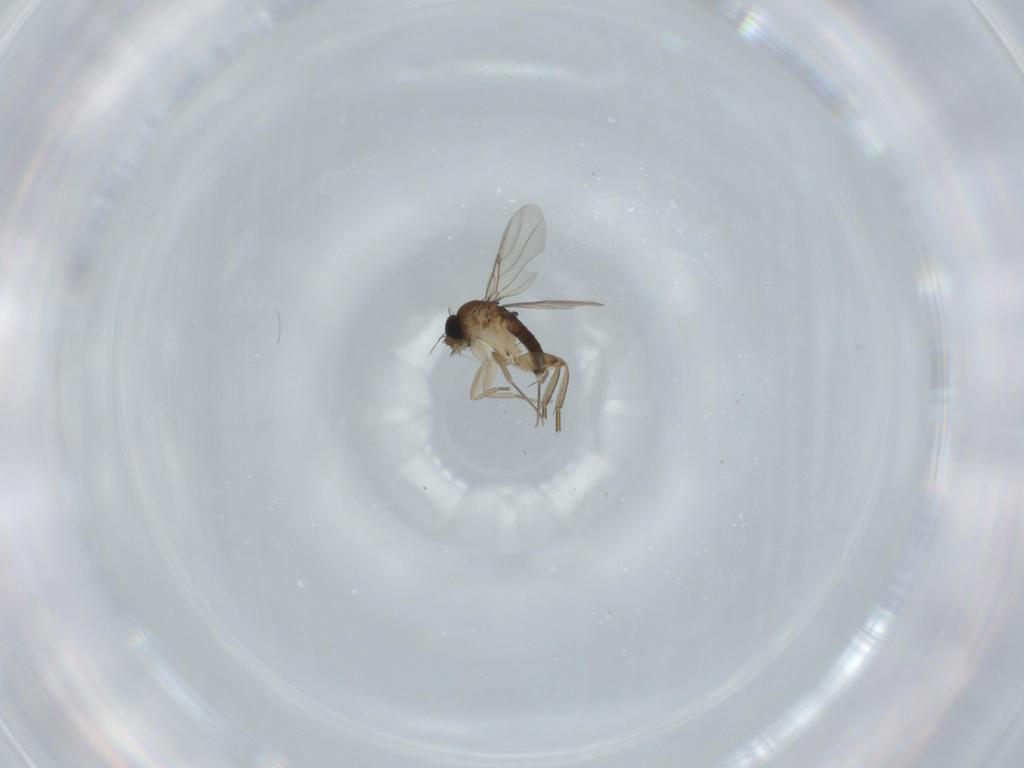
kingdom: Animalia
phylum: Arthropoda
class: Insecta
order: Diptera
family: Phoridae
